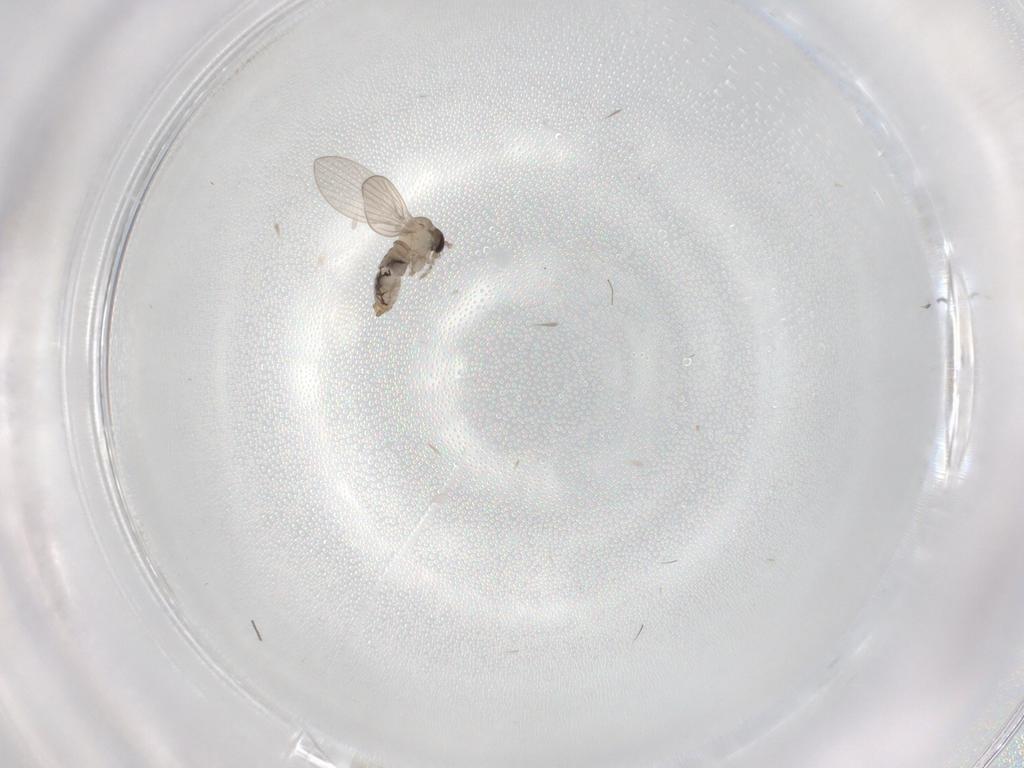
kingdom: Animalia
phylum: Arthropoda
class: Insecta
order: Diptera
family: Psychodidae
